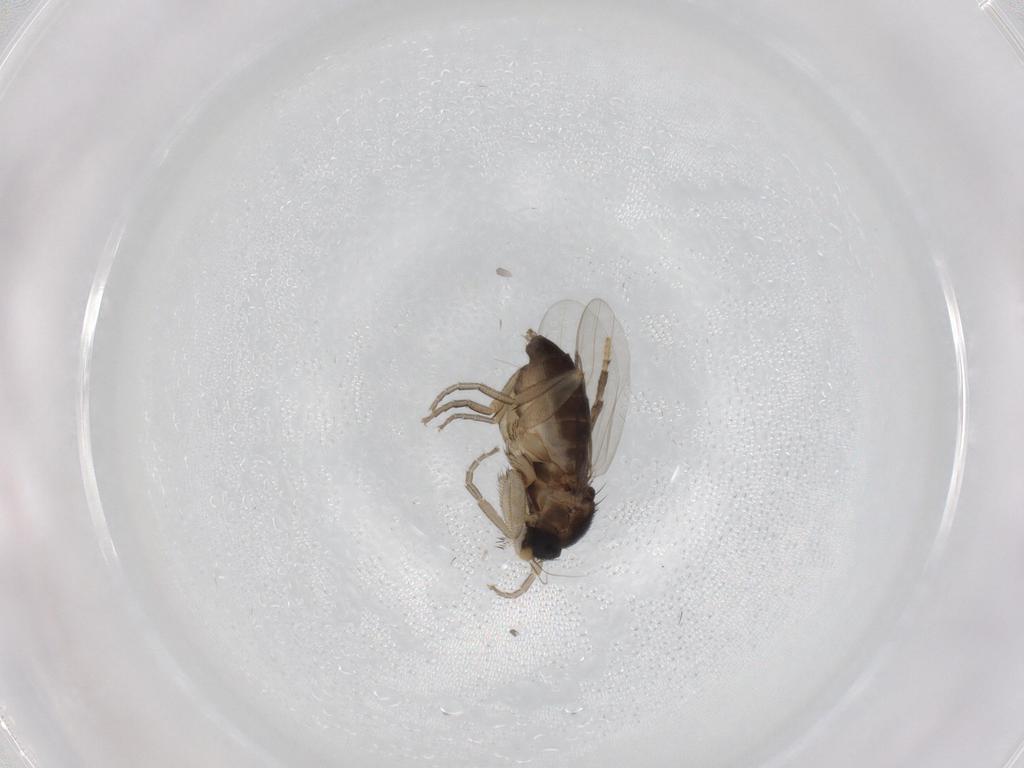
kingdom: Animalia
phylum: Arthropoda
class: Insecta
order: Diptera
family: Phoridae
